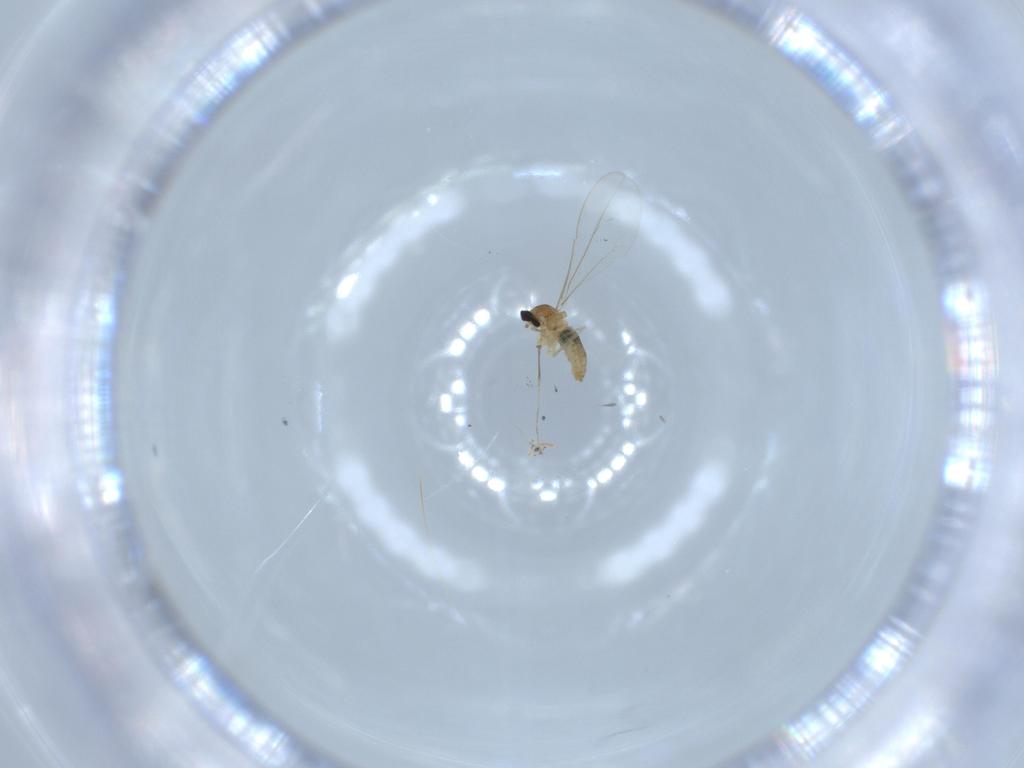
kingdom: Animalia
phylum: Arthropoda
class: Insecta
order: Diptera
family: Cecidomyiidae
